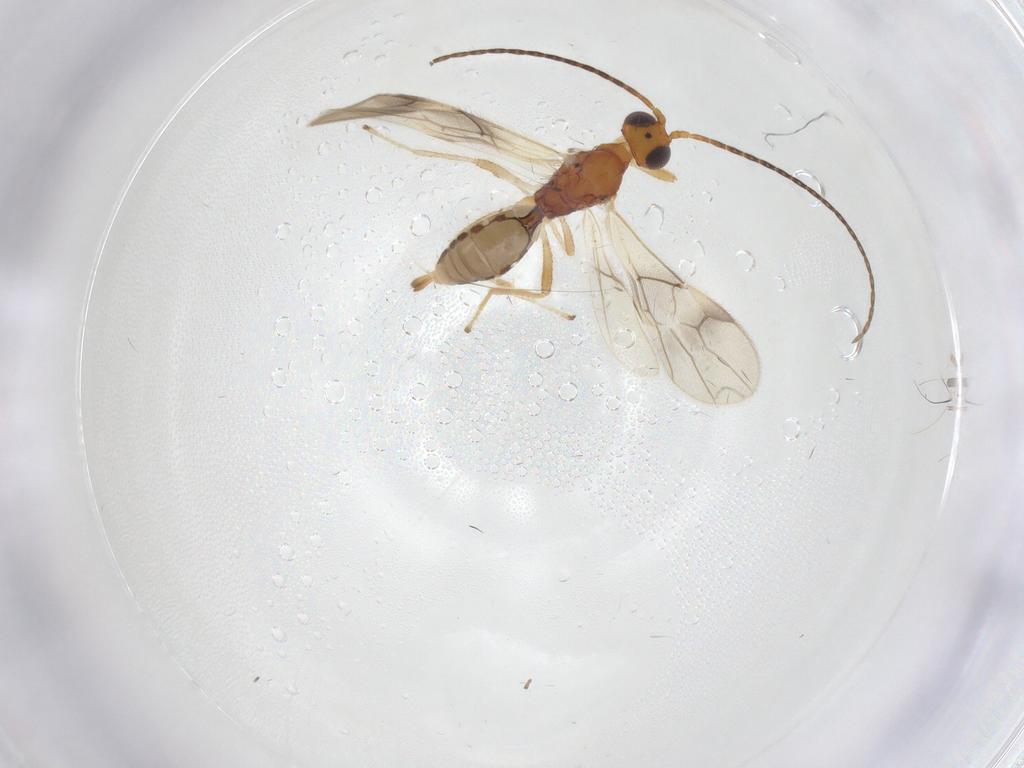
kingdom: Animalia
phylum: Arthropoda
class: Insecta
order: Hymenoptera
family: Braconidae
